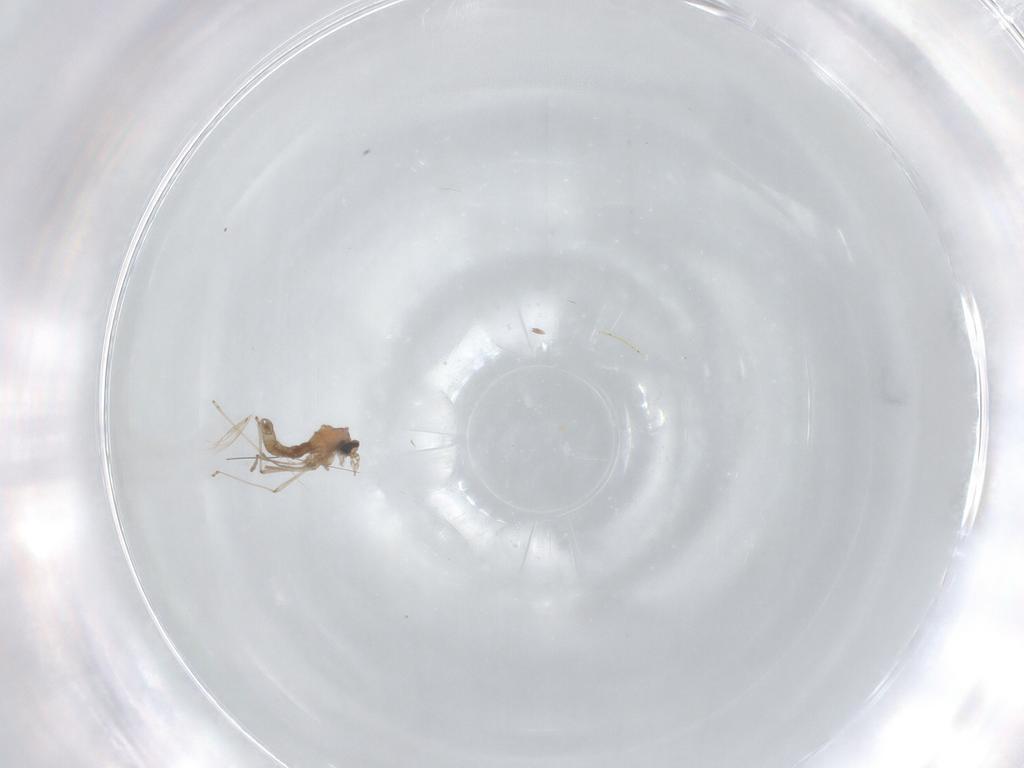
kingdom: Animalia
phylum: Arthropoda
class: Insecta
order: Diptera
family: Cecidomyiidae
